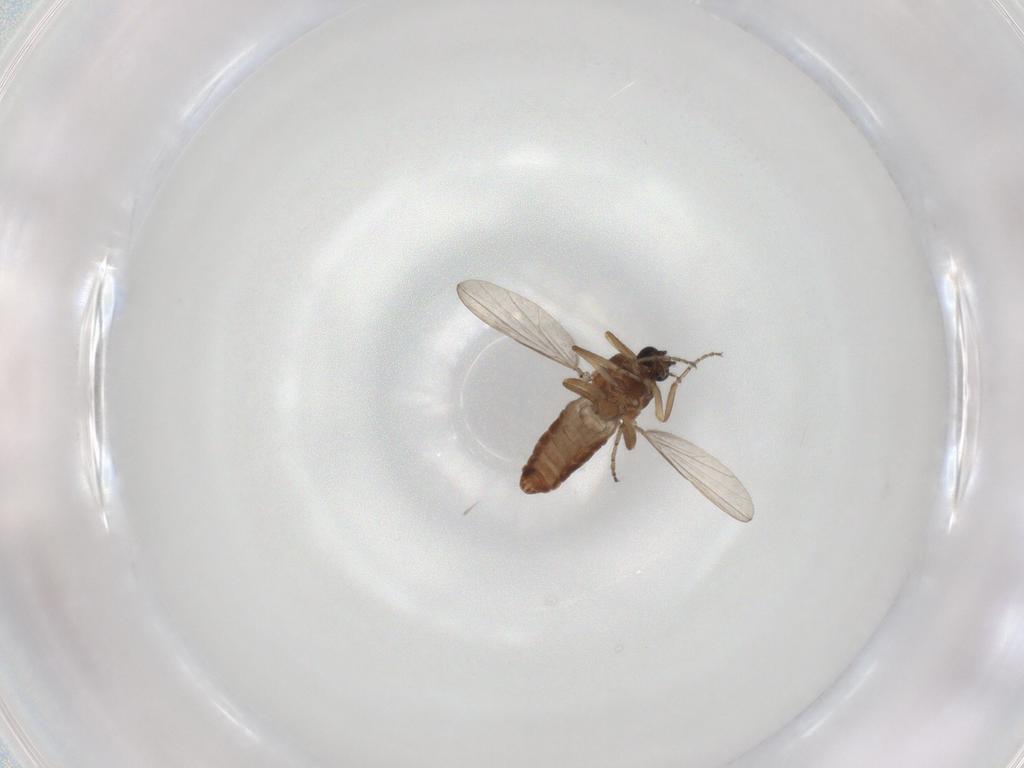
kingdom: Animalia
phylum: Arthropoda
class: Insecta
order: Diptera
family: Ceratopogonidae
